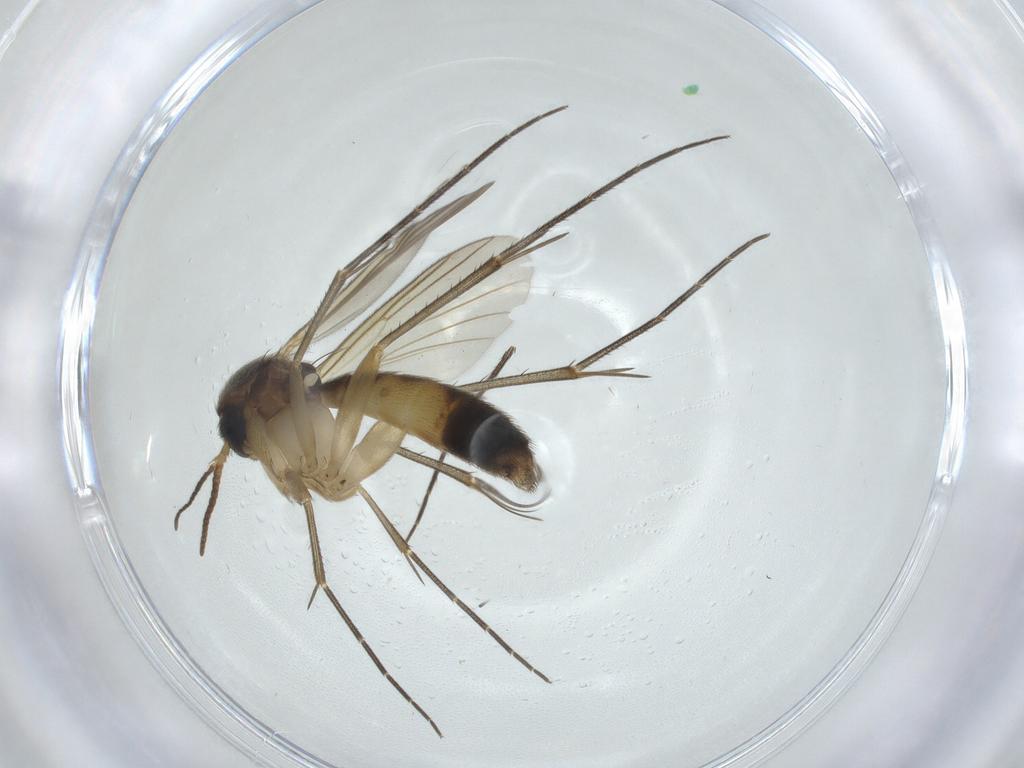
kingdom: Animalia
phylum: Arthropoda
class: Insecta
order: Diptera
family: Mycetophilidae
